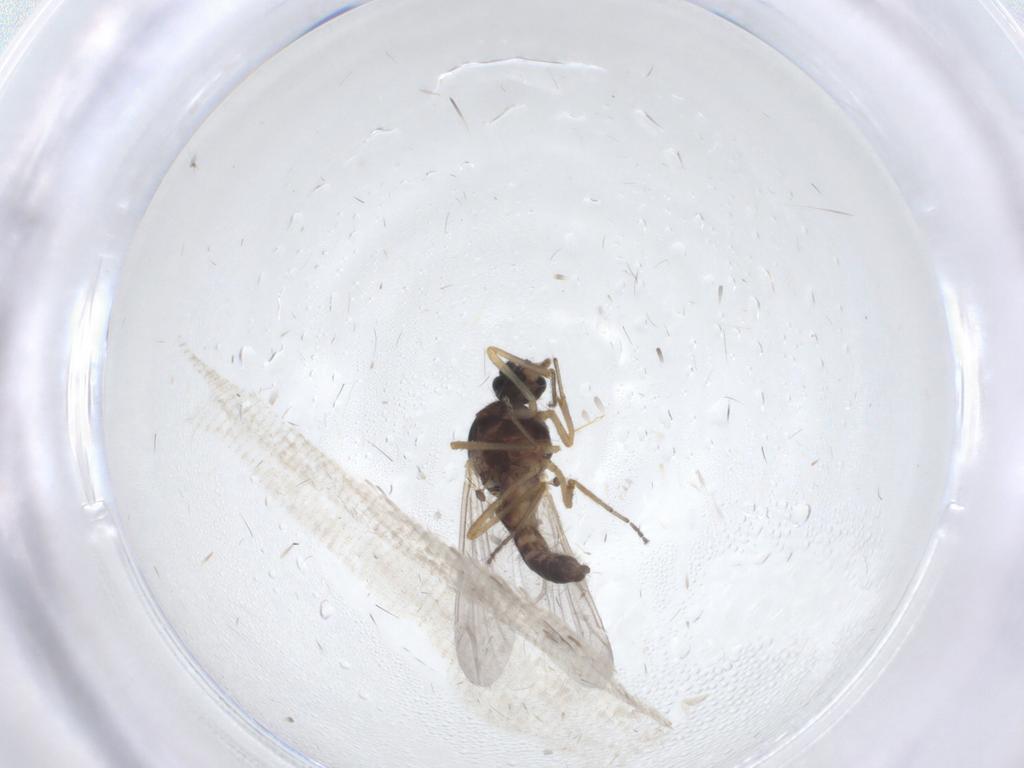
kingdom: Animalia
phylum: Arthropoda
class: Insecta
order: Diptera
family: Ceratopogonidae
